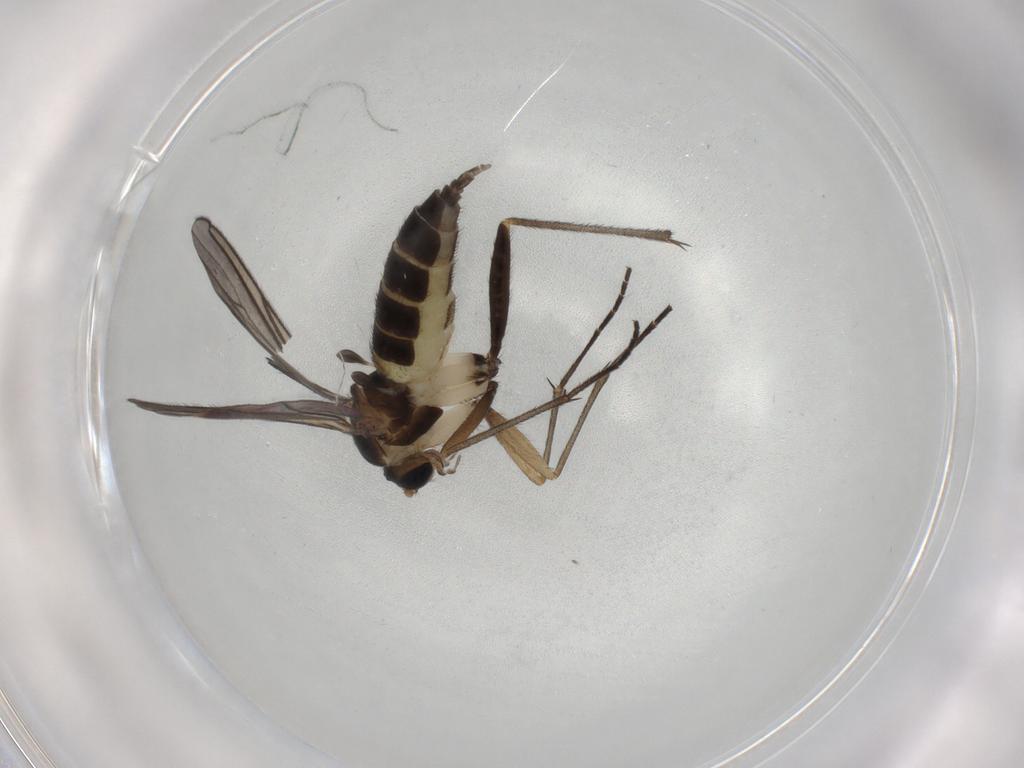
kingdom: Animalia
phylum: Arthropoda
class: Insecta
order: Diptera
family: Sciaridae
